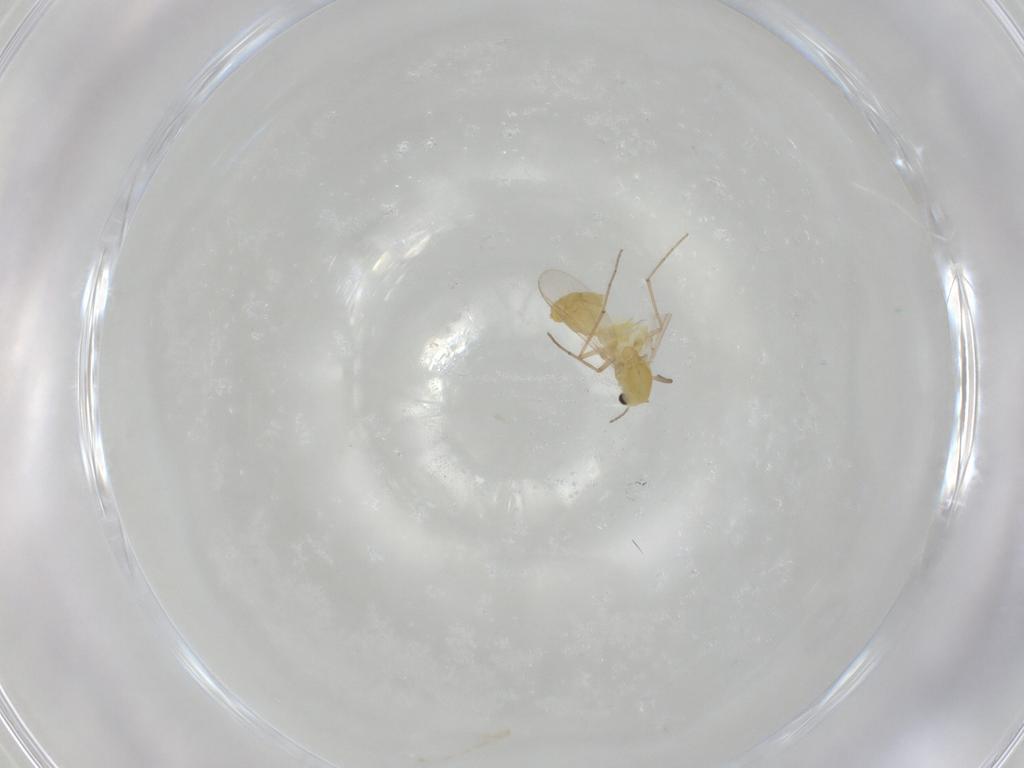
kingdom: Animalia
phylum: Arthropoda
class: Insecta
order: Diptera
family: Chironomidae
